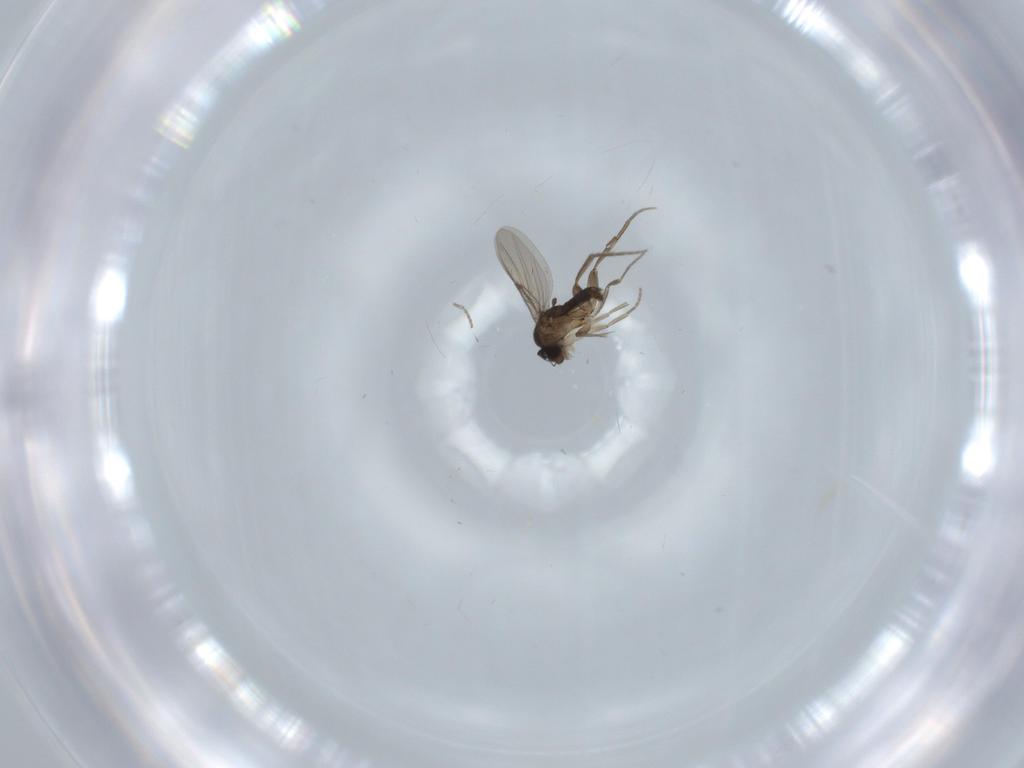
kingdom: Animalia
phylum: Arthropoda
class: Insecta
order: Diptera
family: Phoridae
